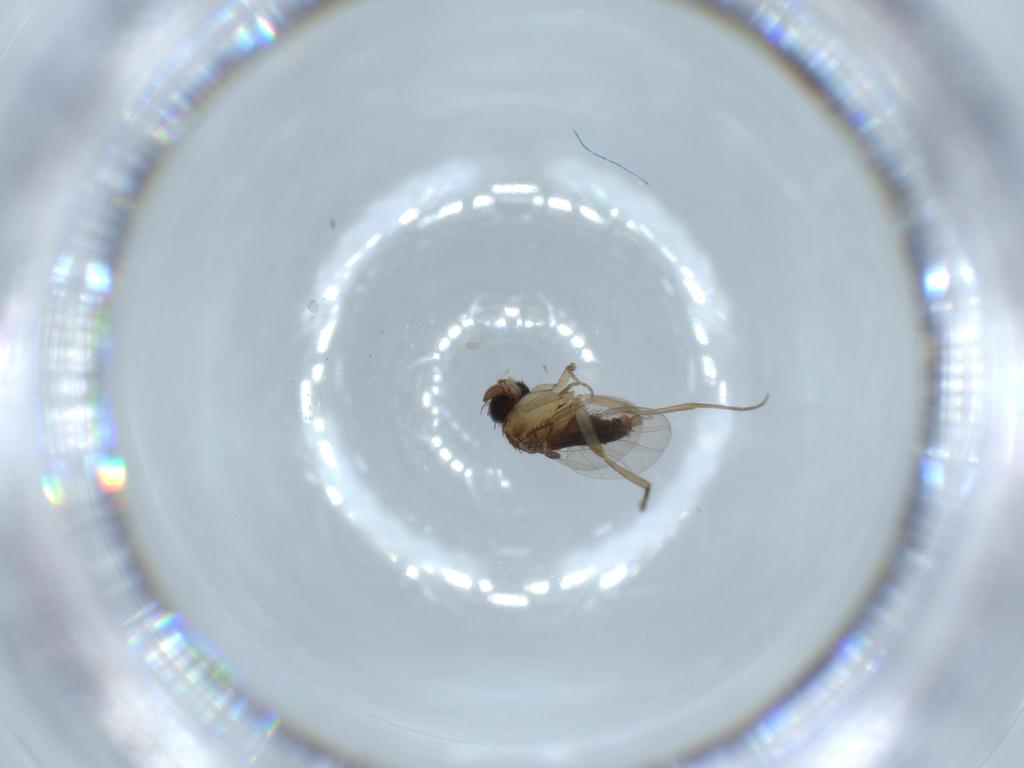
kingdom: Animalia
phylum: Arthropoda
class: Insecta
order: Diptera
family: Phoridae
